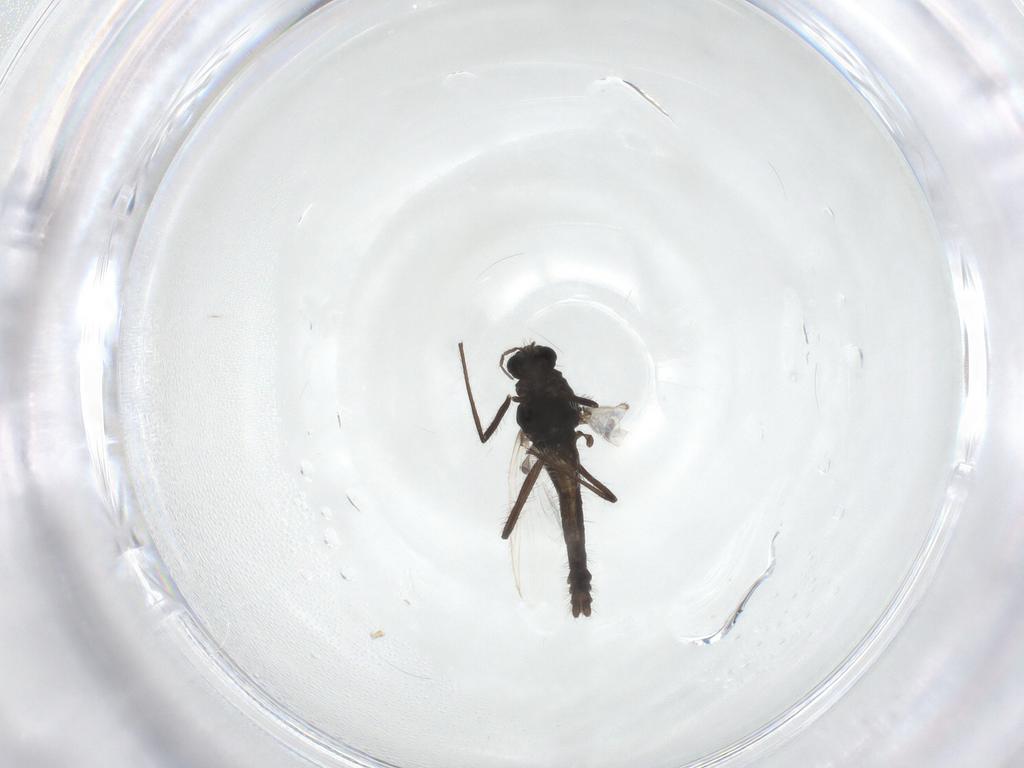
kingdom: Animalia
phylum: Arthropoda
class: Insecta
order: Diptera
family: Chironomidae
